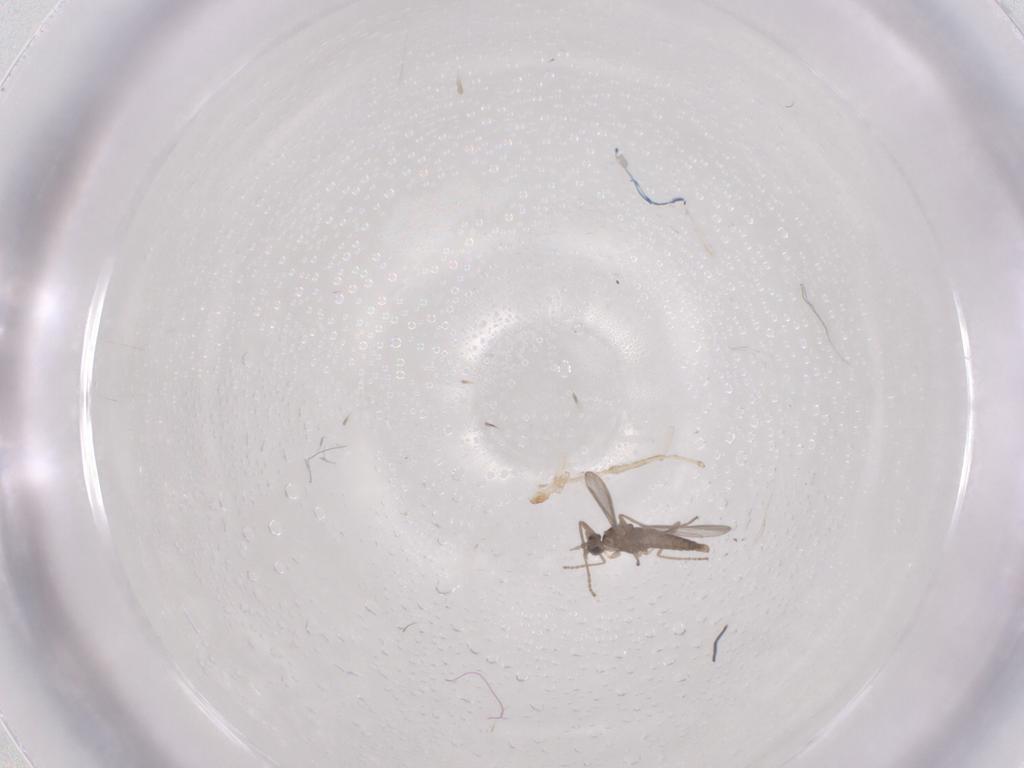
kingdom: Animalia
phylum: Arthropoda
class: Insecta
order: Diptera
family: Cecidomyiidae
